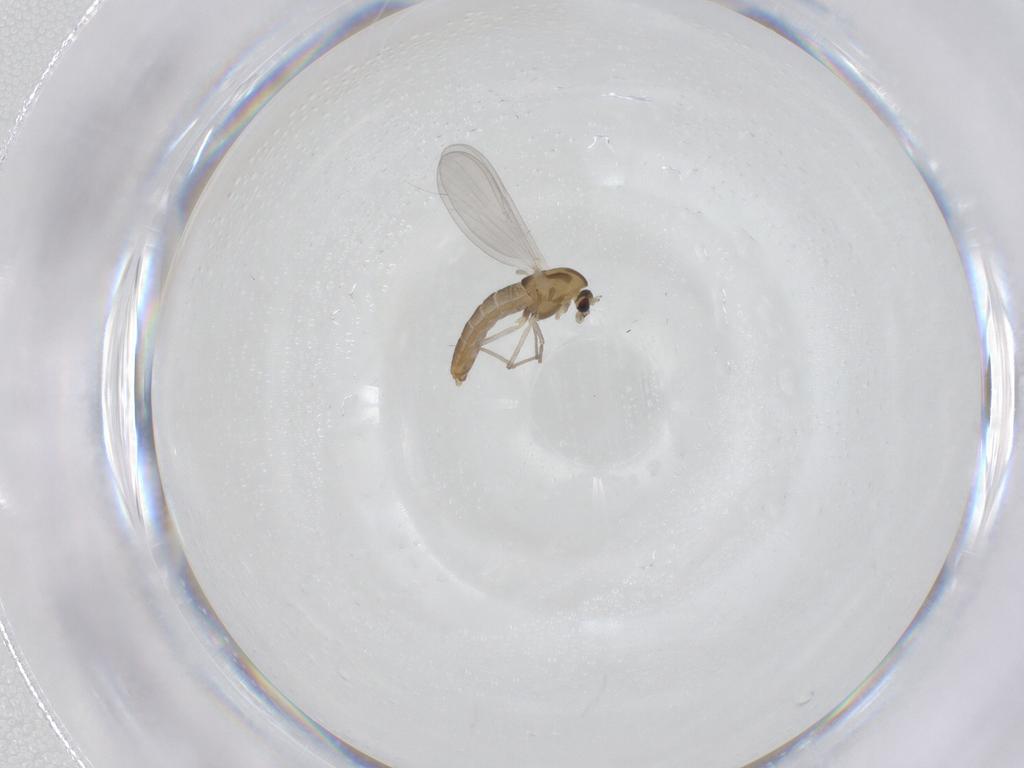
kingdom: Animalia
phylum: Arthropoda
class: Insecta
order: Diptera
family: Chironomidae
